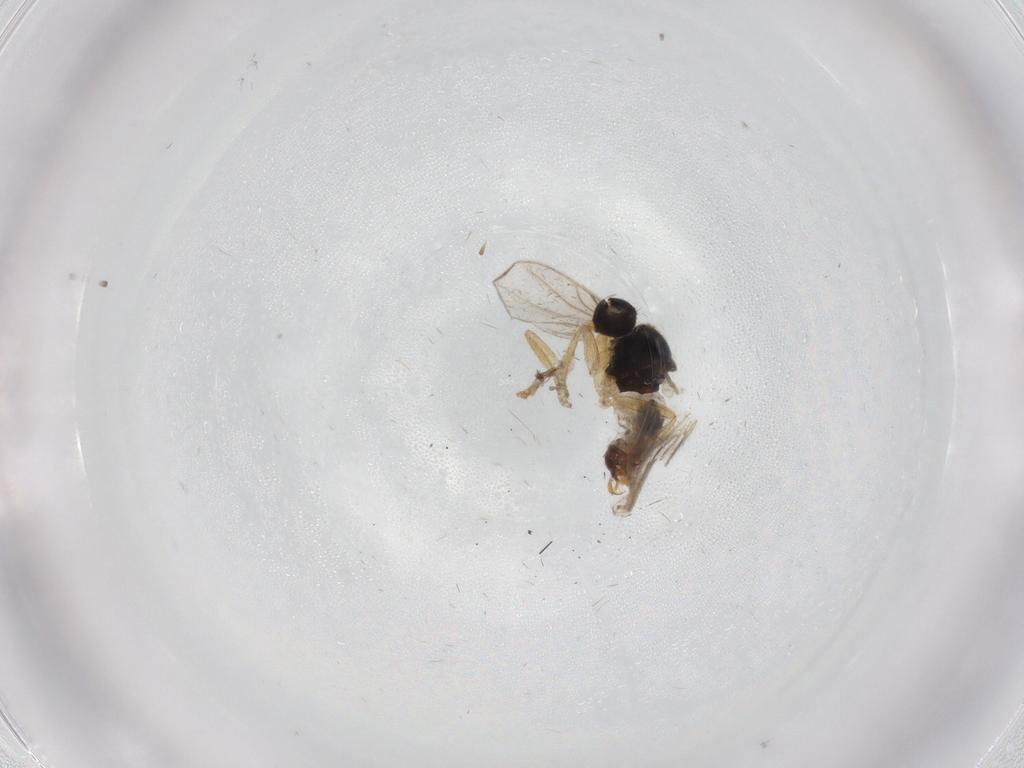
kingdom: Animalia
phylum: Arthropoda
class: Insecta
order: Diptera
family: Hybotidae
